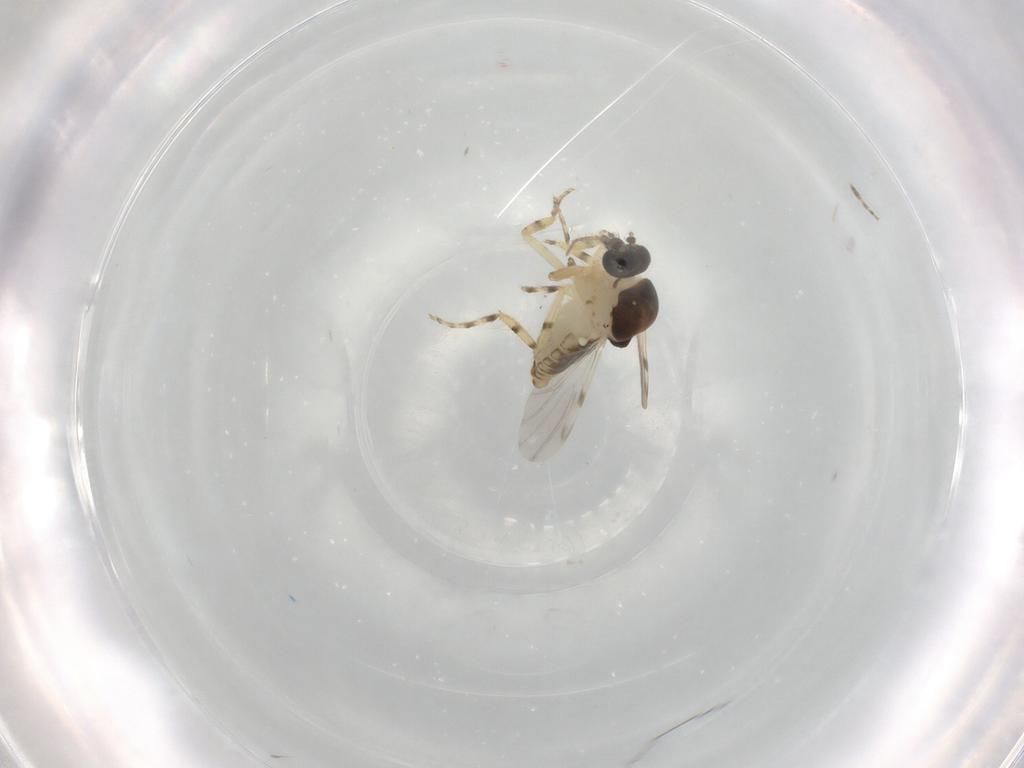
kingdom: Animalia
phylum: Arthropoda
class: Insecta
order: Diptera
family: Ceratopogonidae
